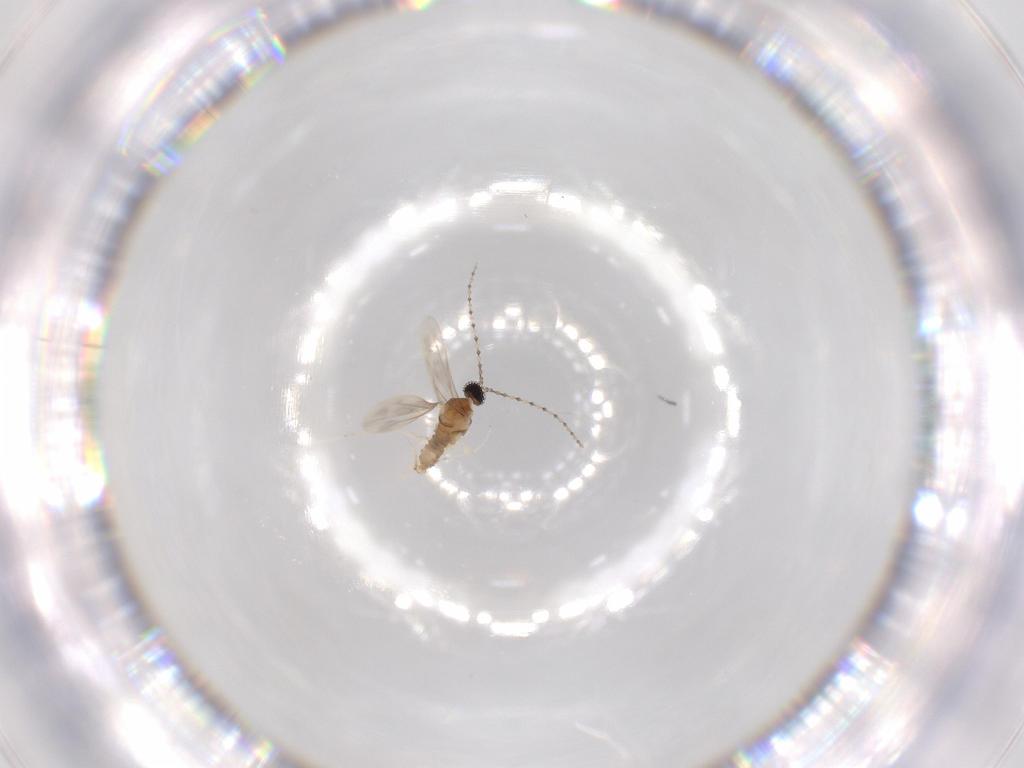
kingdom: Animalia
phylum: Arthropoda
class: Insecta
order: Diptera
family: Cecidomyiidae
